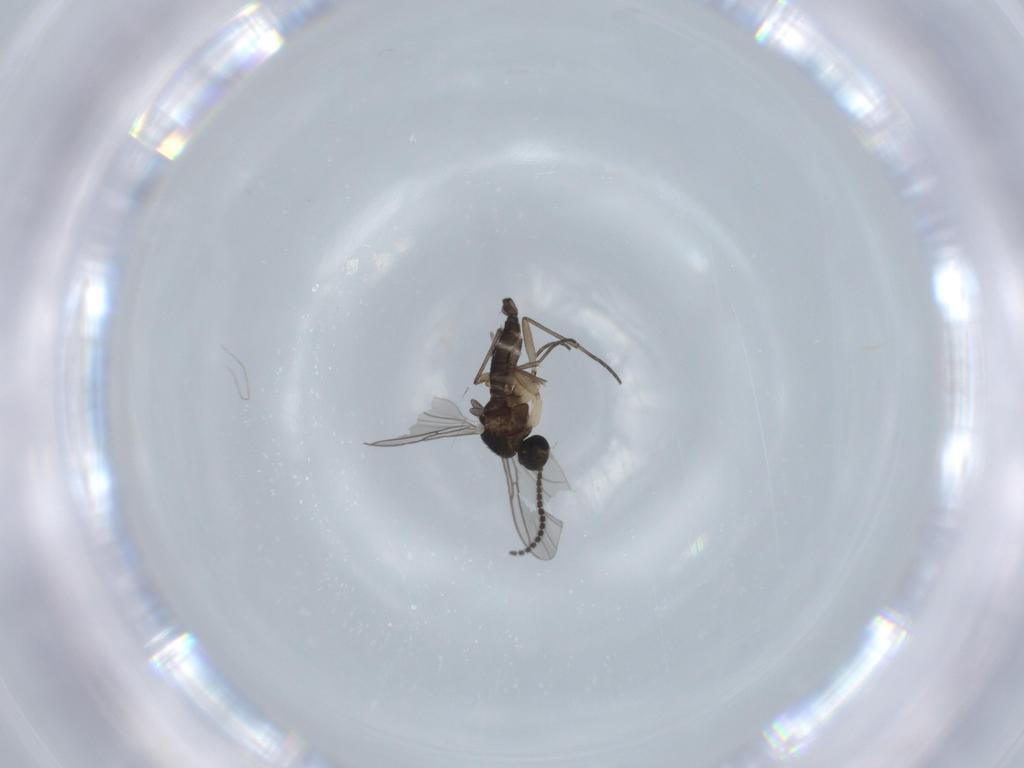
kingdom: Animalia
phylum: Arthropoda
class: Insecta
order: Diptera
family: Sciaridae
